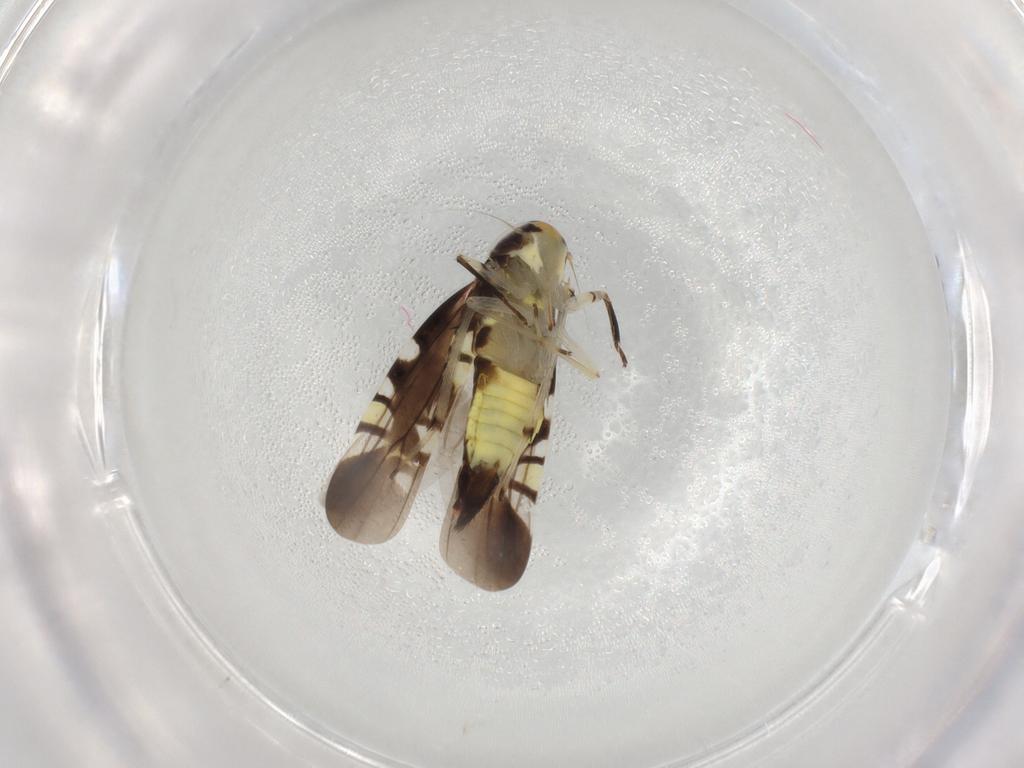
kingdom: Animalia
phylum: Arthropoda
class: Insecta
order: Hemiptera
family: Cicadellidae
